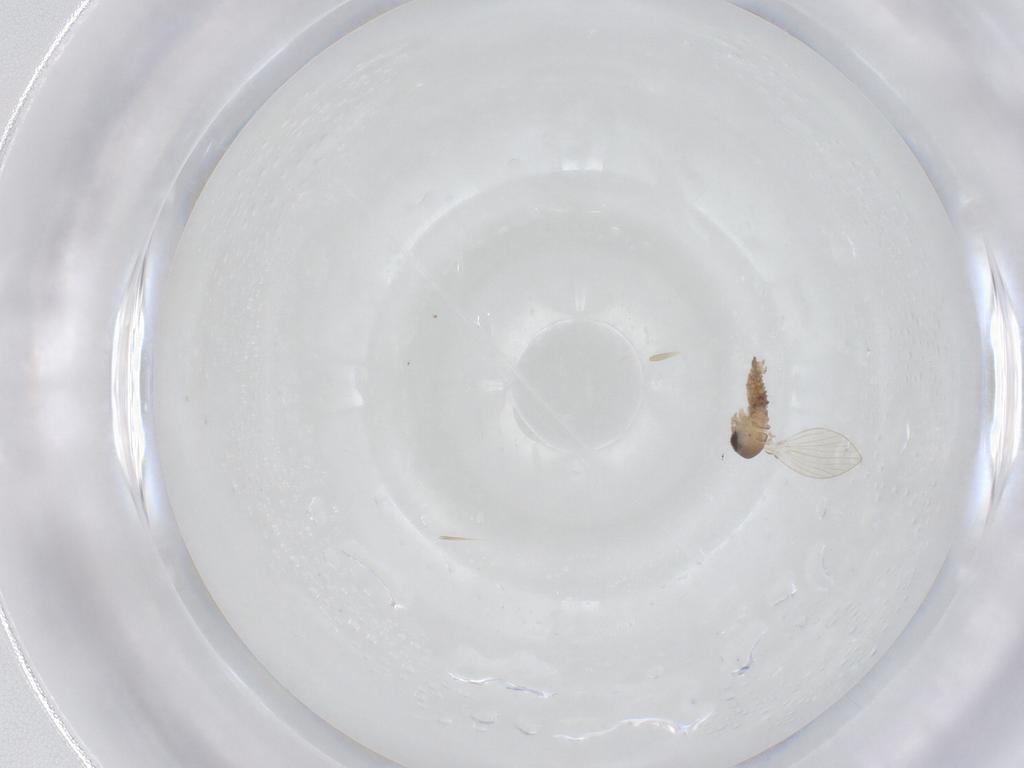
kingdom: Animalia
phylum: Arthropoda
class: Insecta
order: Diptera
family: Psychodidae
